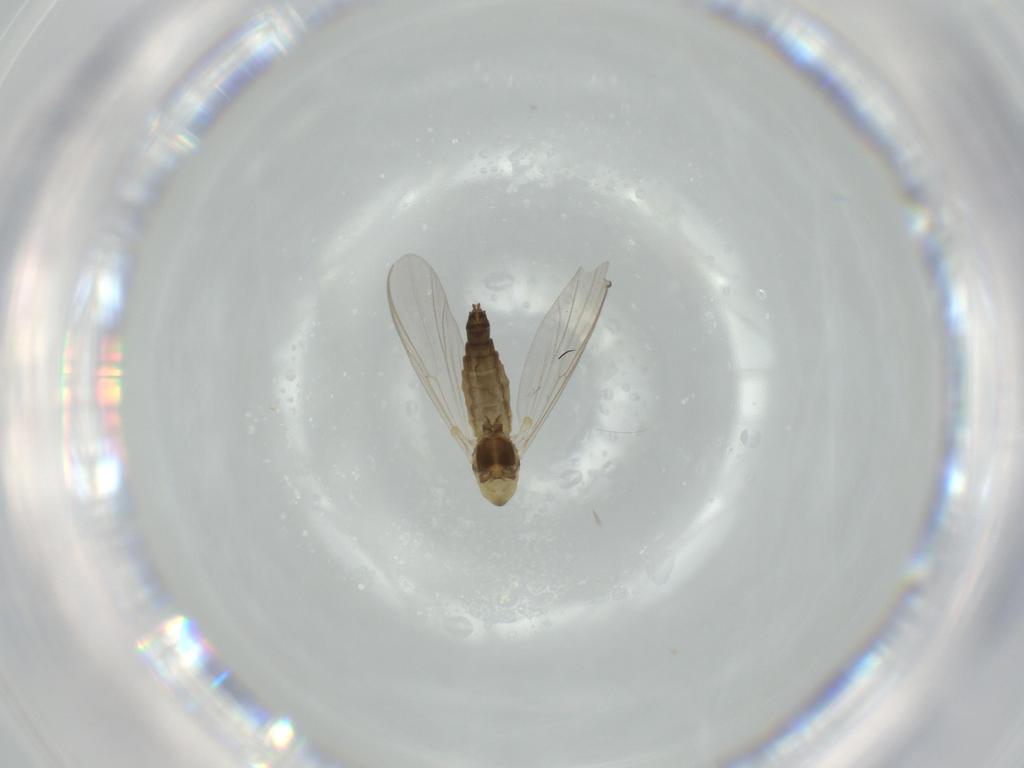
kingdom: Animalia
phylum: Arthropoda
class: Insecta
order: Diptera
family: Chironomidae
